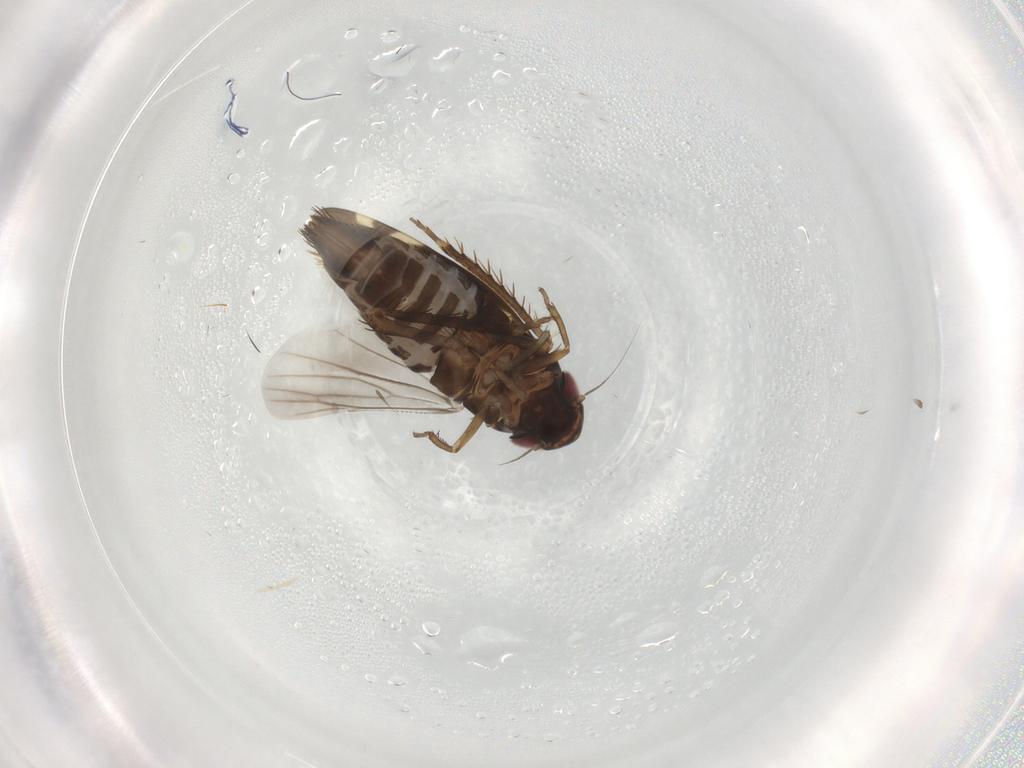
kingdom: Animalia
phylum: Arthropoda
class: Insecta
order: Hemiptera
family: Cicadellidae
